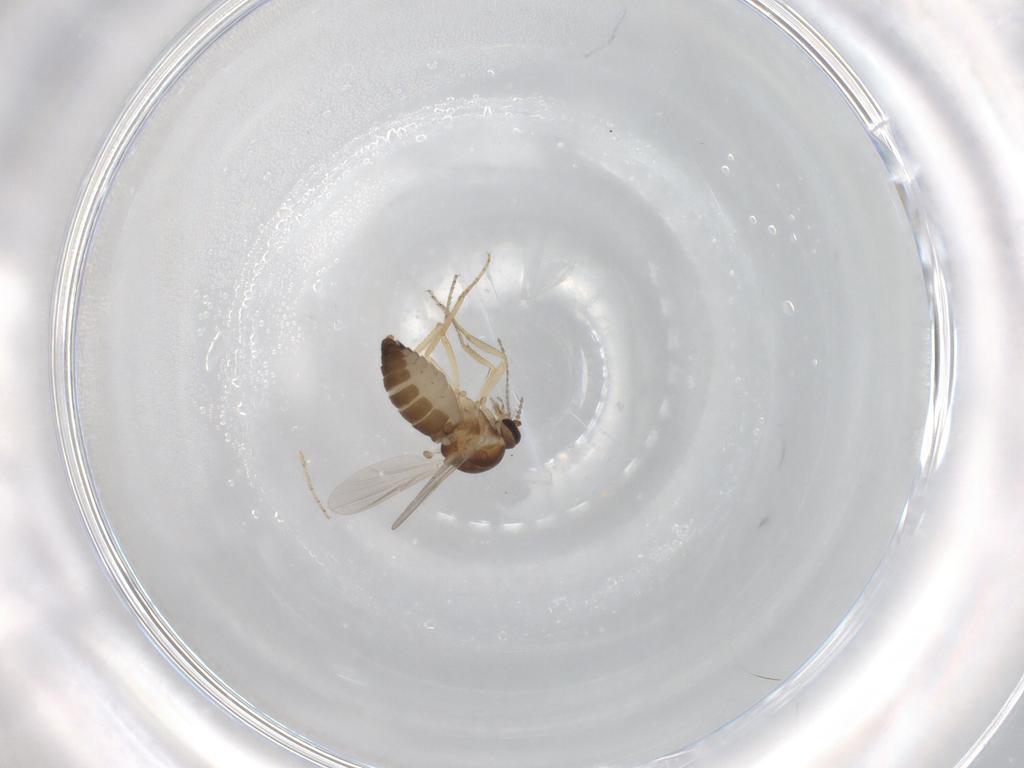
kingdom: Animalia
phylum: Arthropoda
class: Insecta
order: Diptera
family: Ceratopogonidae
